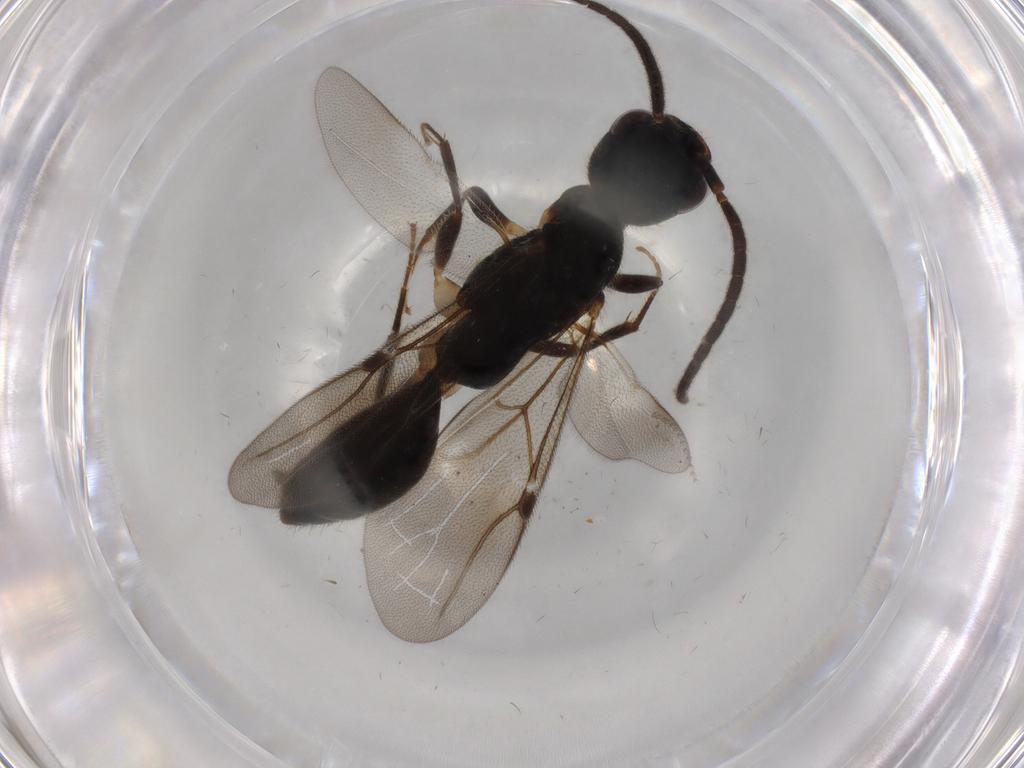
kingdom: Animalia
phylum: Arthropoda
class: Insecta
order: Hymenoptera
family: Bethylidae
